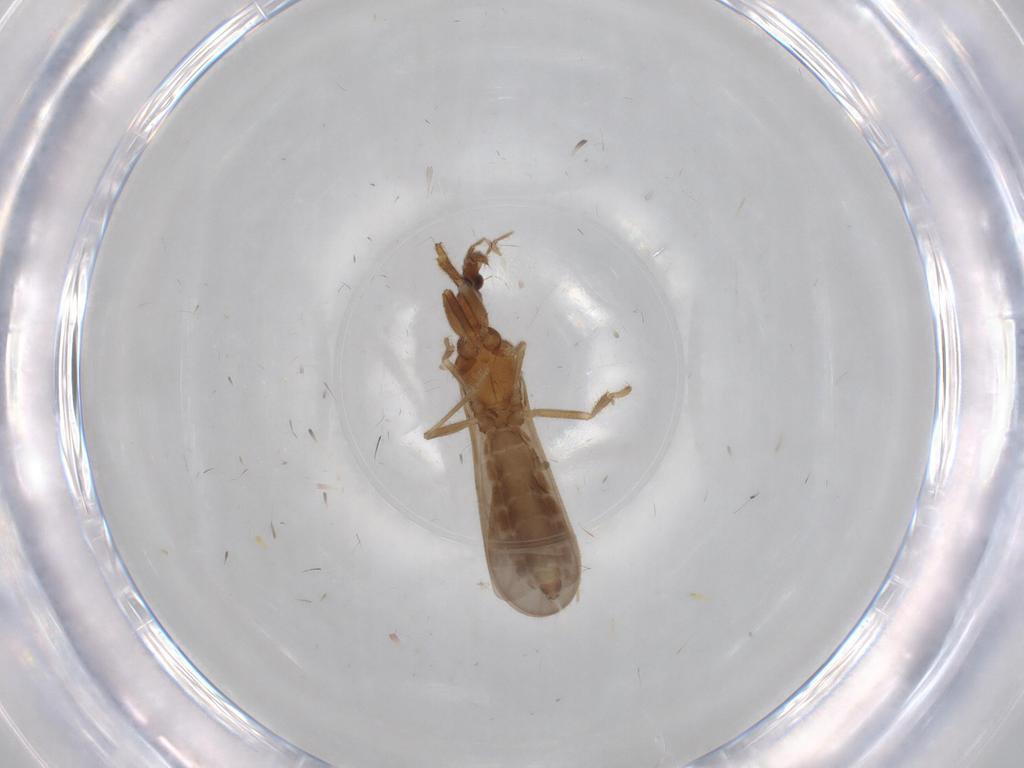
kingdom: Animalia
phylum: Arthropoda
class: Insecta
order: Hemiptera
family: Enicocephalidae
